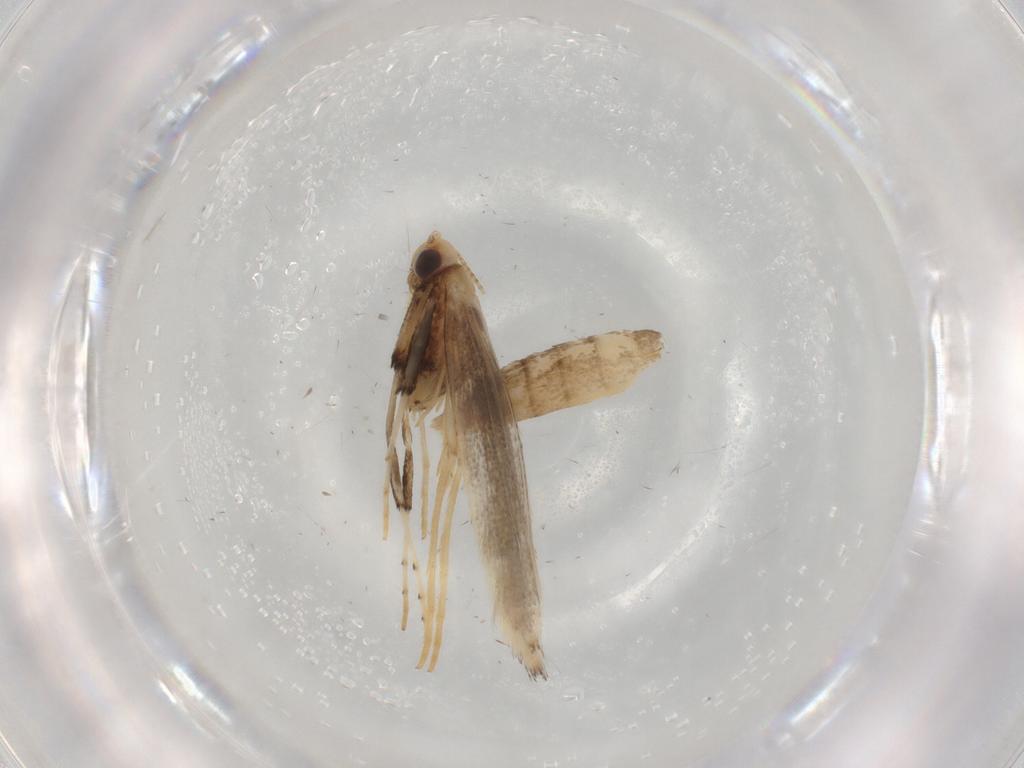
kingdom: Animalia
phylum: Arthropoda
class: Insecta
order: Lepidoptera
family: Gracillariidae
